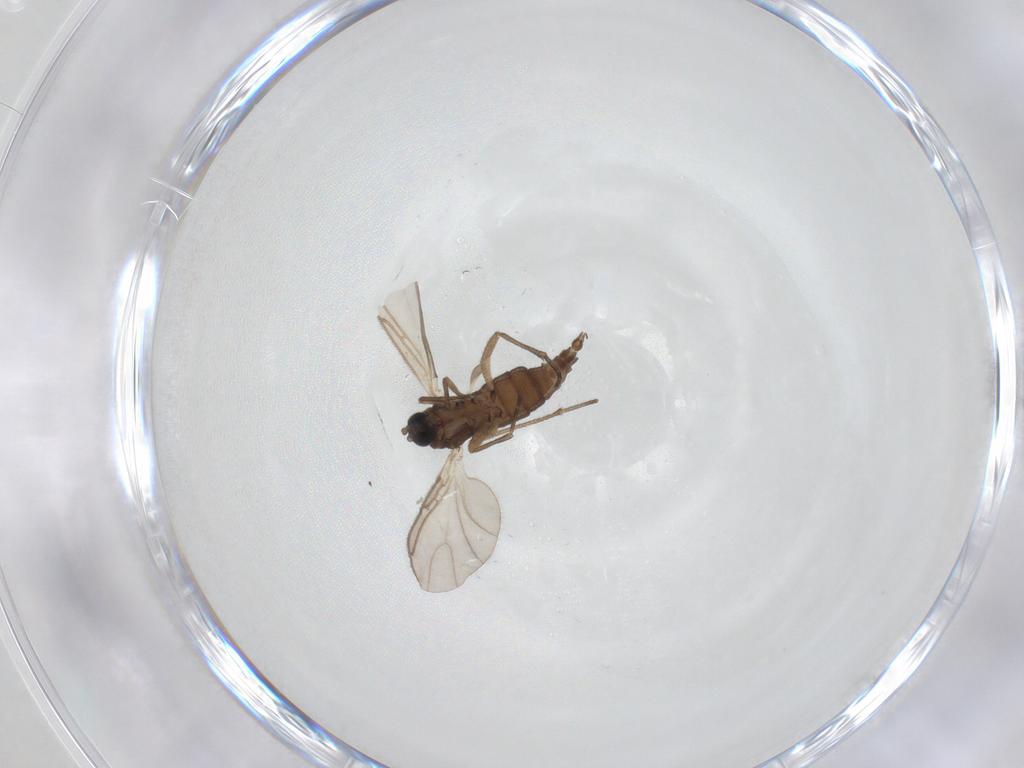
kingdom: Animalia
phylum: Arthropoda
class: Insecta
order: Diptera
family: Sciaridae
